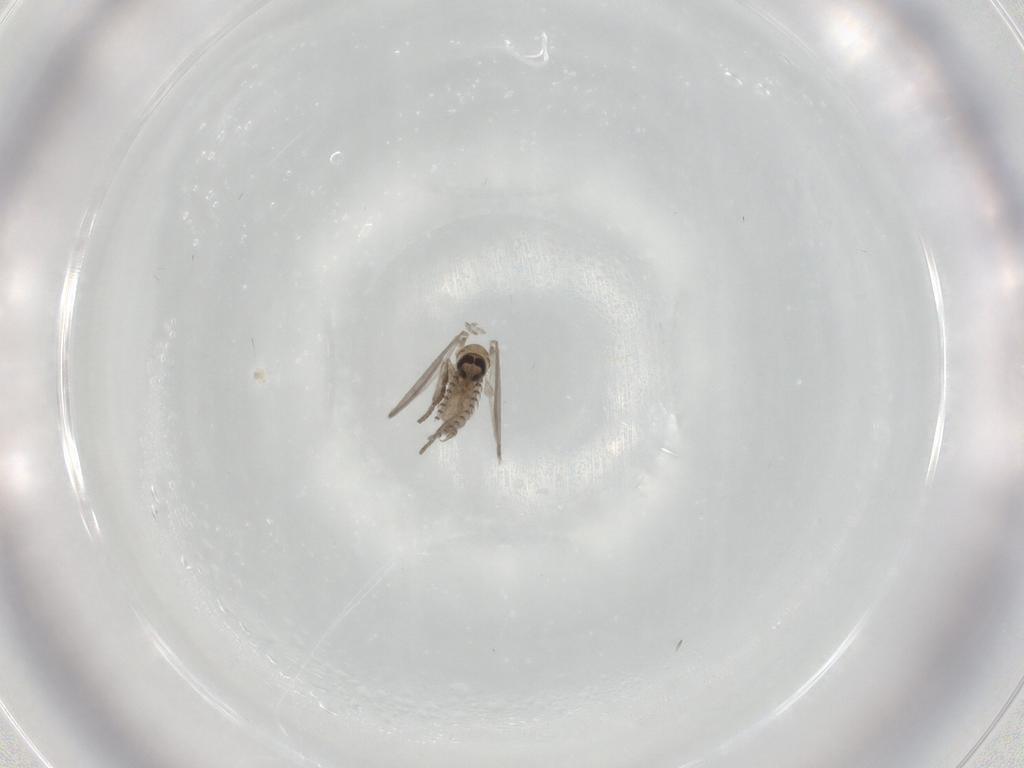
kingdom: Animalia
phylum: Arthropoda
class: Insecta
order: Diptera
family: Psychodidae
